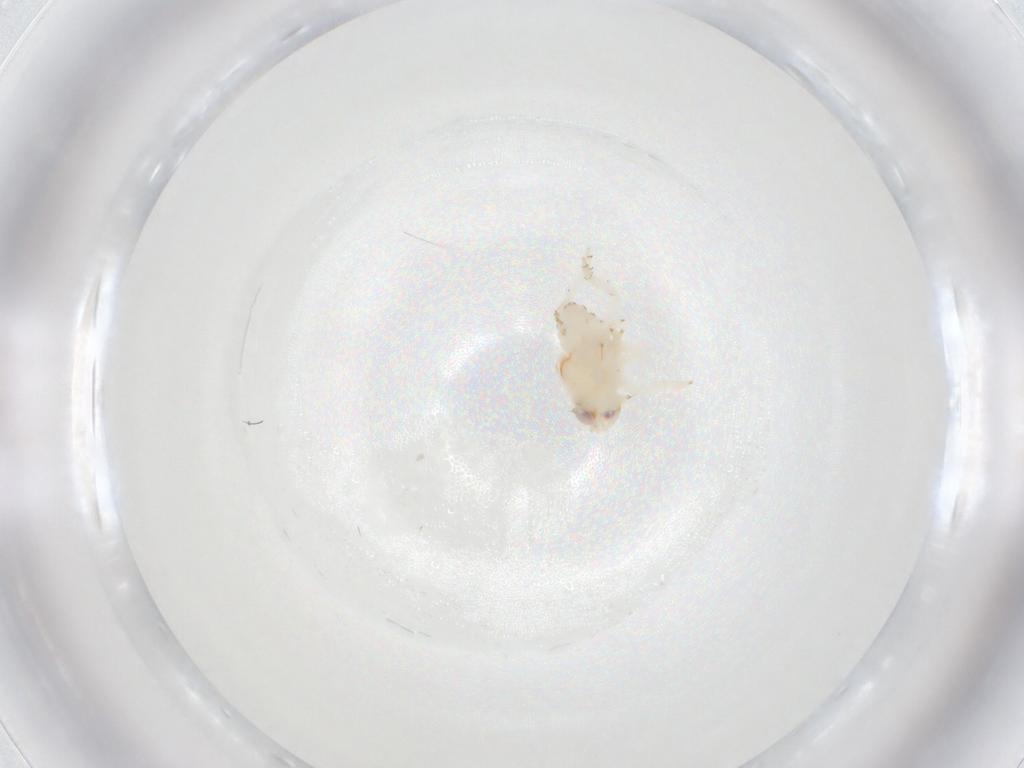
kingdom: Animalia
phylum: Arthropoda
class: Insecta
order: Hemiptera
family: Nogodinidae
